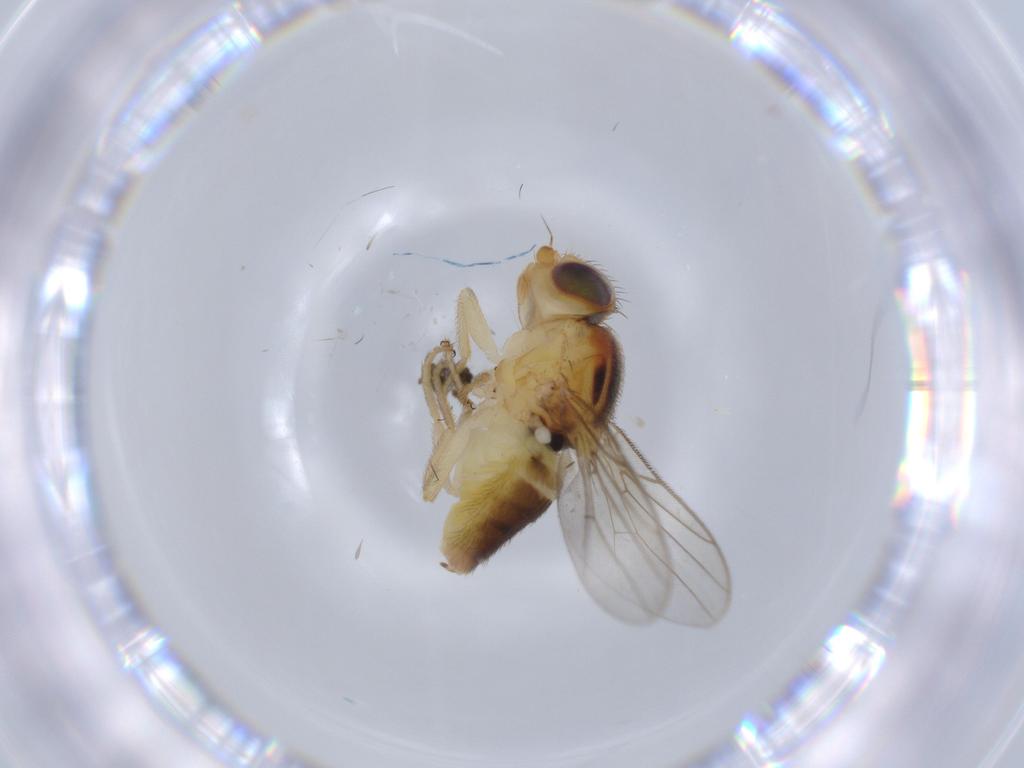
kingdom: Animalia
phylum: Arthropoda
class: Insecta
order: Diptera
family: Chloropidae
